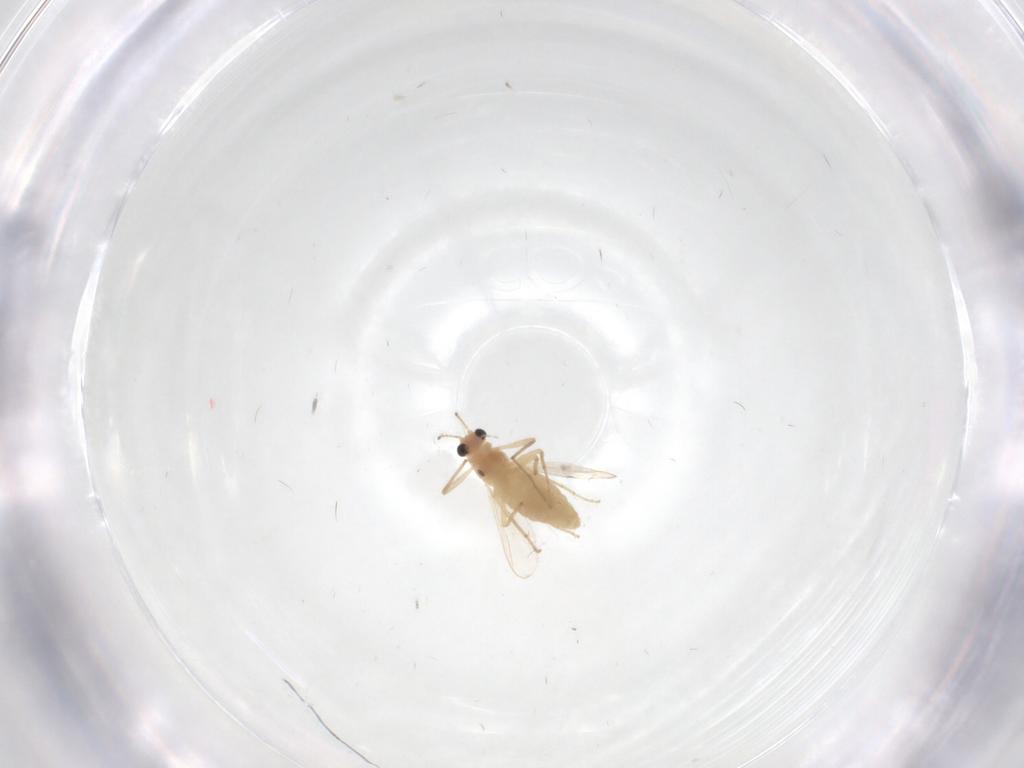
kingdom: Animalia
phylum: Arthropoda
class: Insecta
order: Diptera
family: Chironomidae
